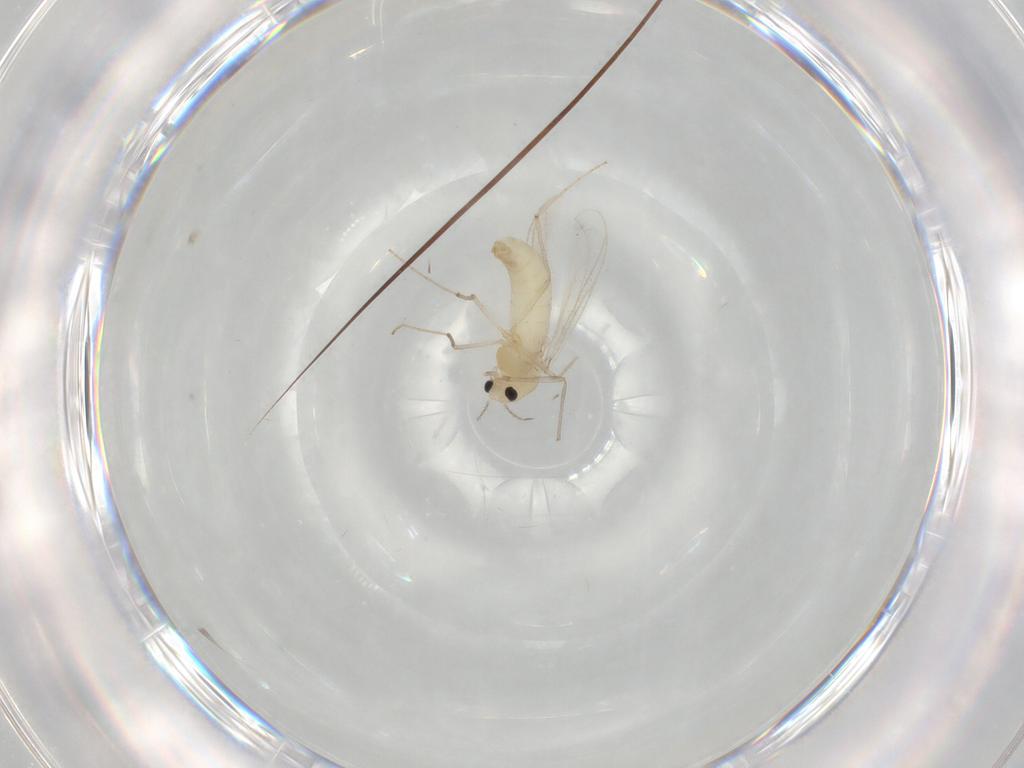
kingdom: Animalia
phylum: Arthropoda
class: Insecta
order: Diptera
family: Chironomidae
